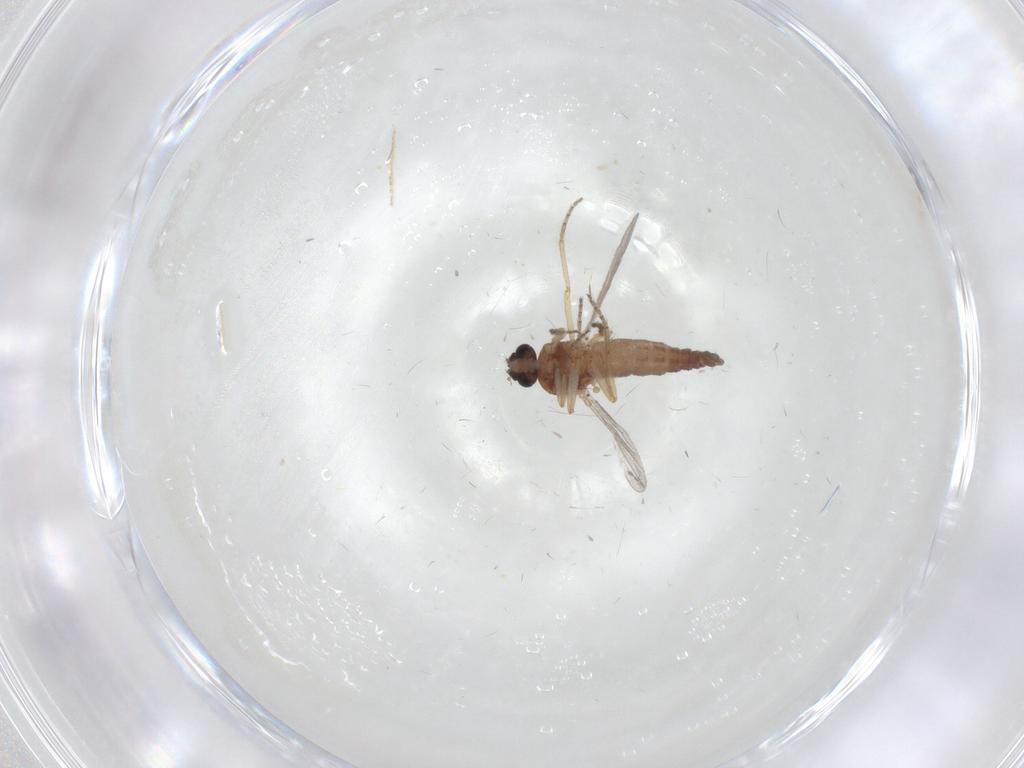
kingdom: Animalia
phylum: Arthropoda
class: Insecta
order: Diptera
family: Ceratopogonidae
